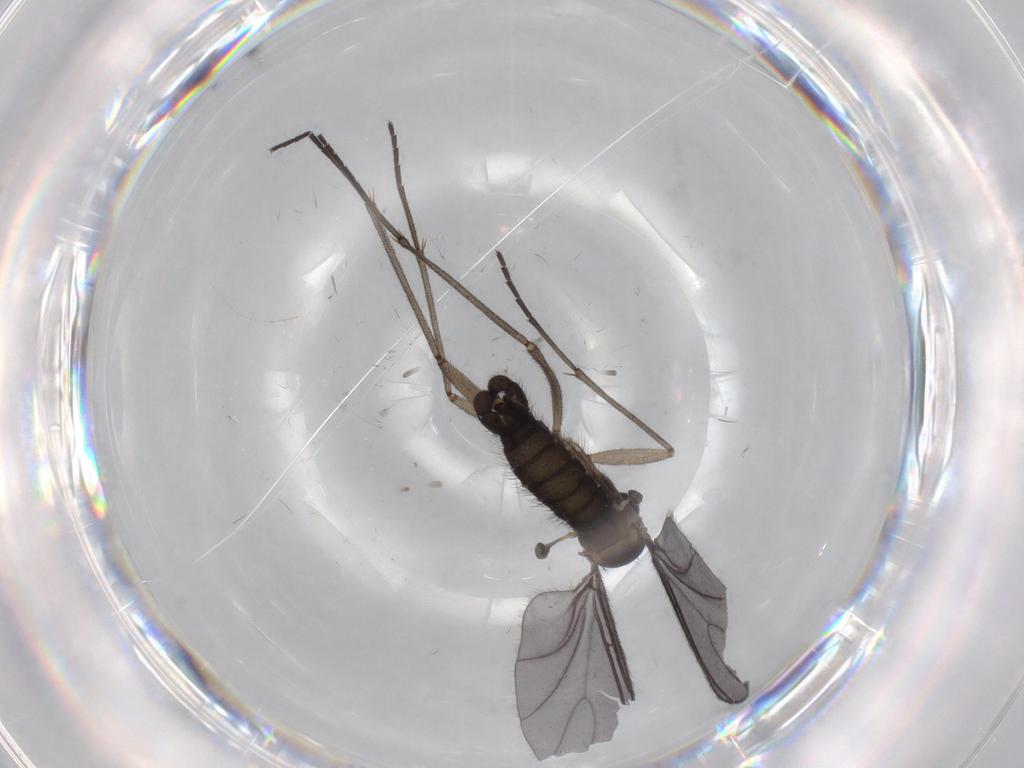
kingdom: Animalia
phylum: Arthropoda
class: Insecta
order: Diptera
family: Sciaridae
